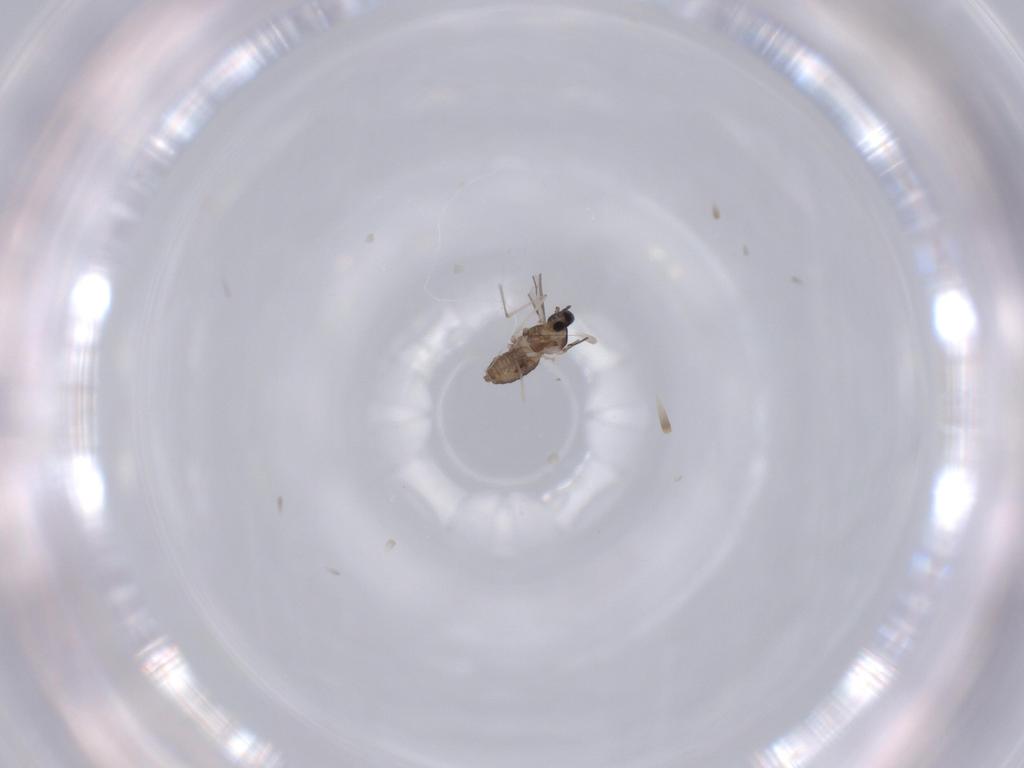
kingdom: Animalia
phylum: Arthropoda
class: Insecta
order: Diptera
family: Cecidomyiidae
